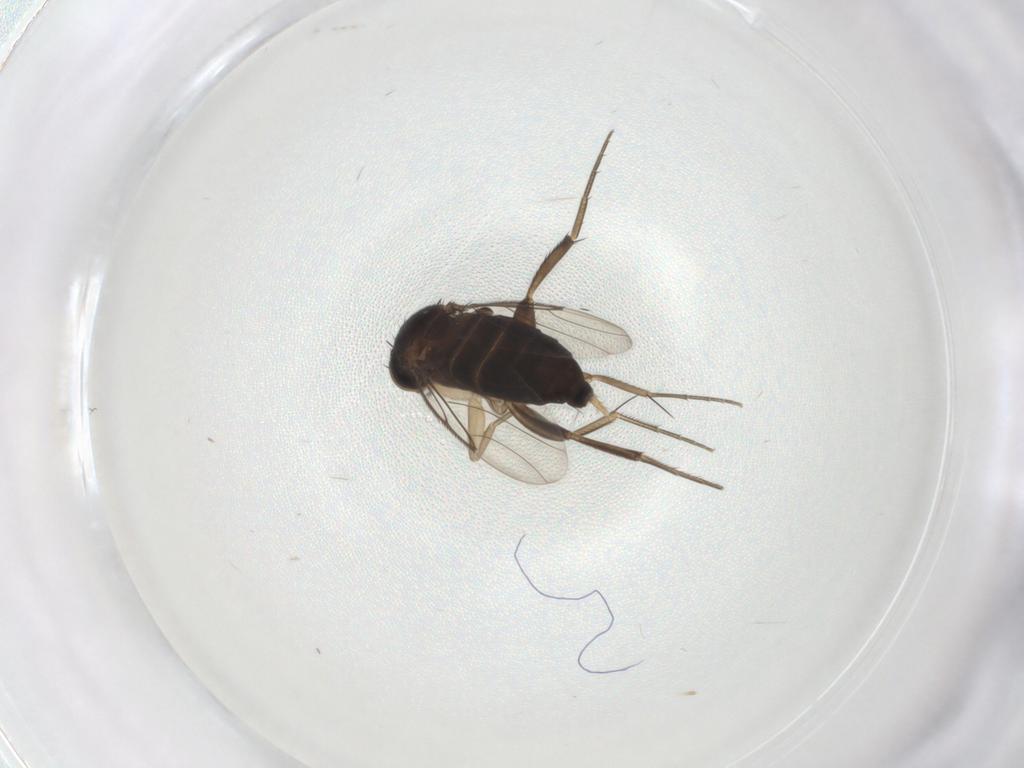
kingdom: Animalia
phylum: Arthropoda
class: Insecta
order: Diptera
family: Phoridae
